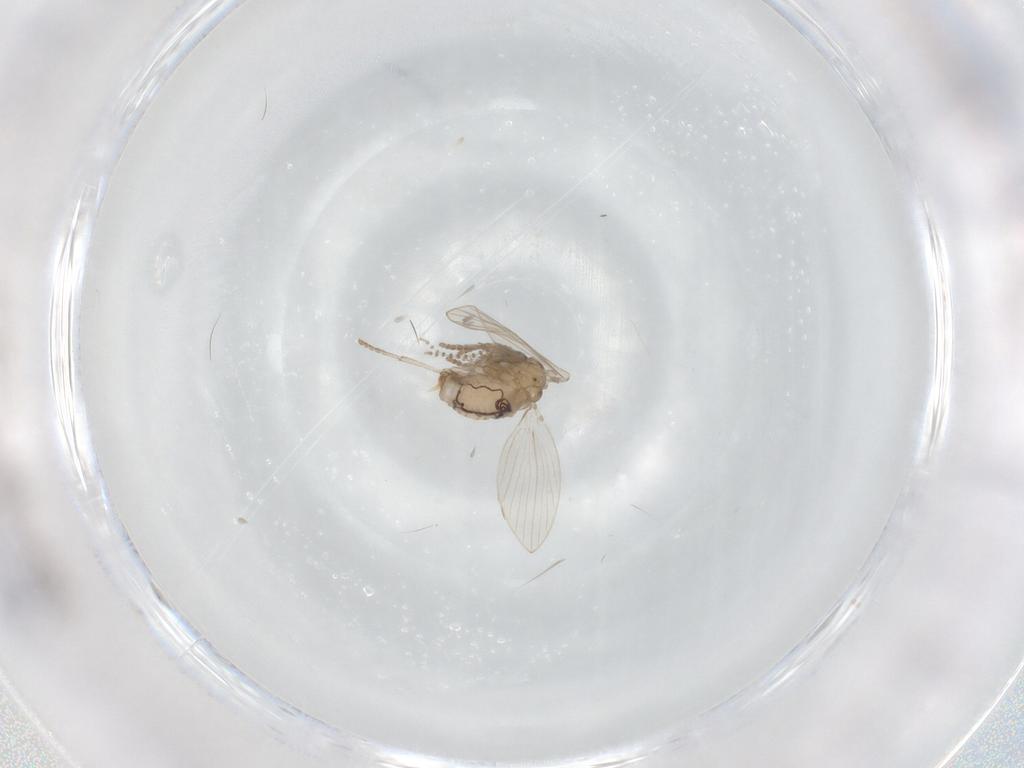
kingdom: Animalia
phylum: Arthropoda
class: Insecta
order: Diptera
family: Psychodidae
